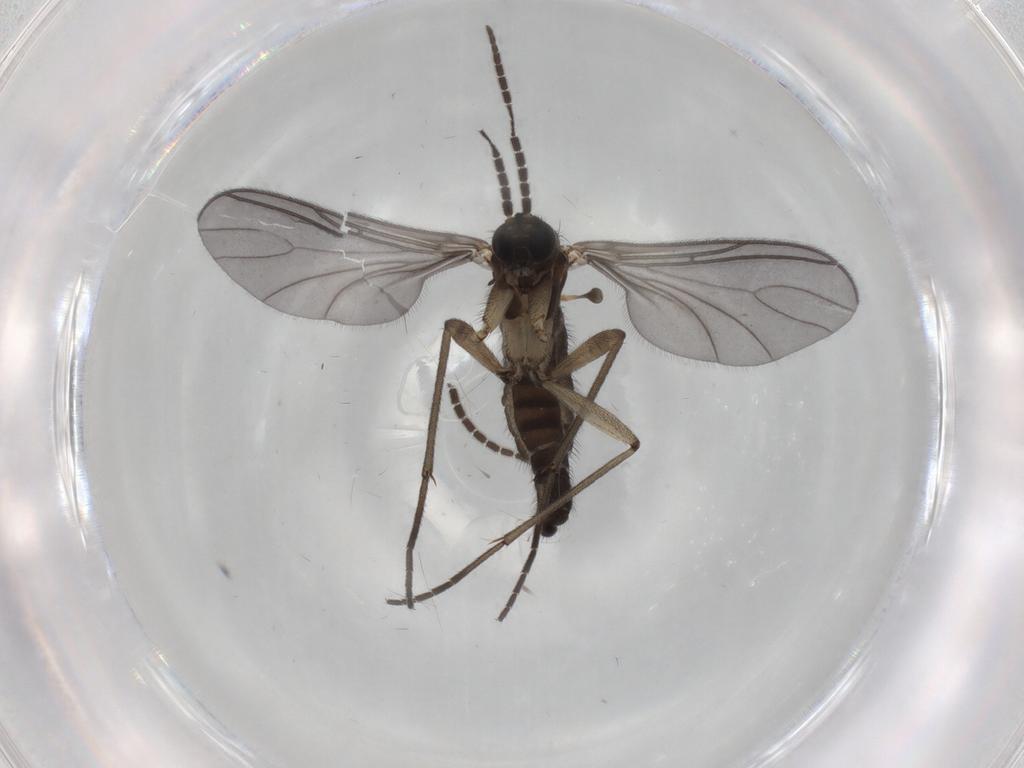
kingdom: Animalia
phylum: Arthropoda
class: Insecta
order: Diptera
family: Sciaridae
